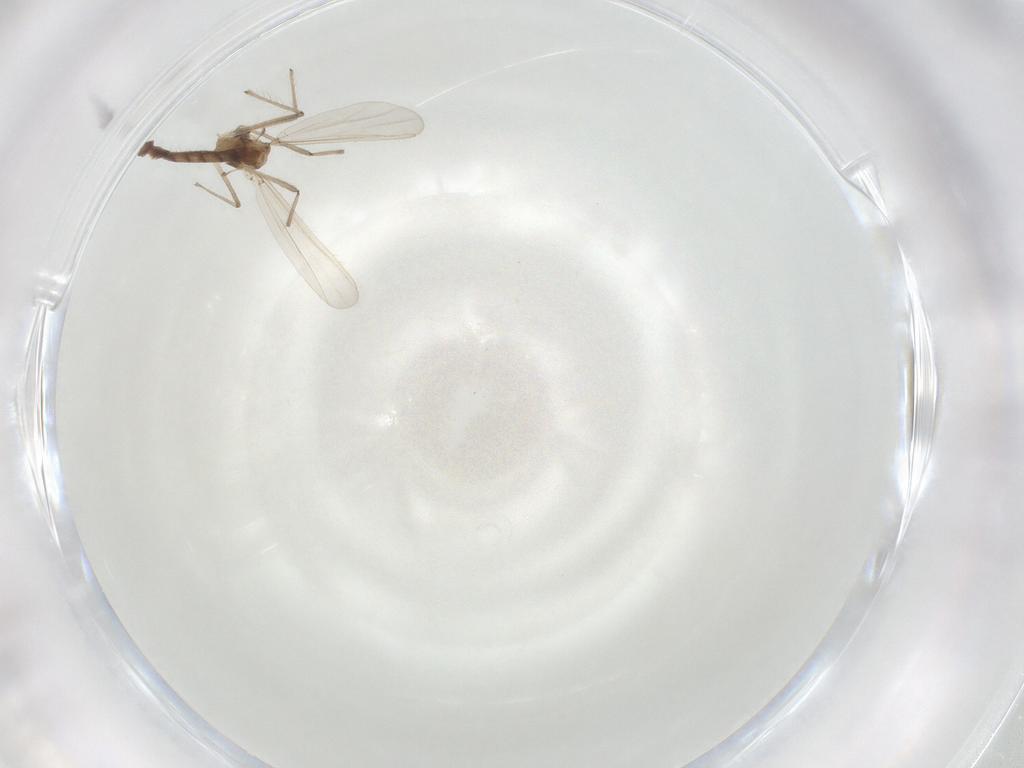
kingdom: Animalia
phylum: Arthropoda
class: Insecta
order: Diptera
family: Chironomidae
